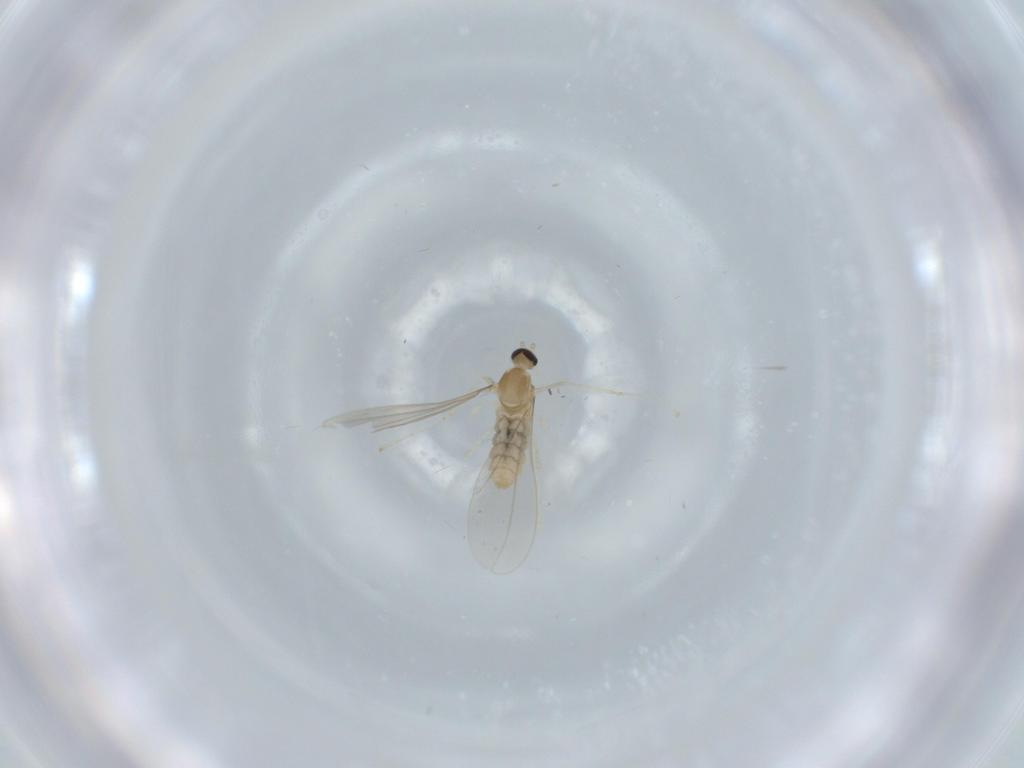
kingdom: Animalia
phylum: Arthropoda
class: Insecta
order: Diptera
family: Cecidomyiidae
